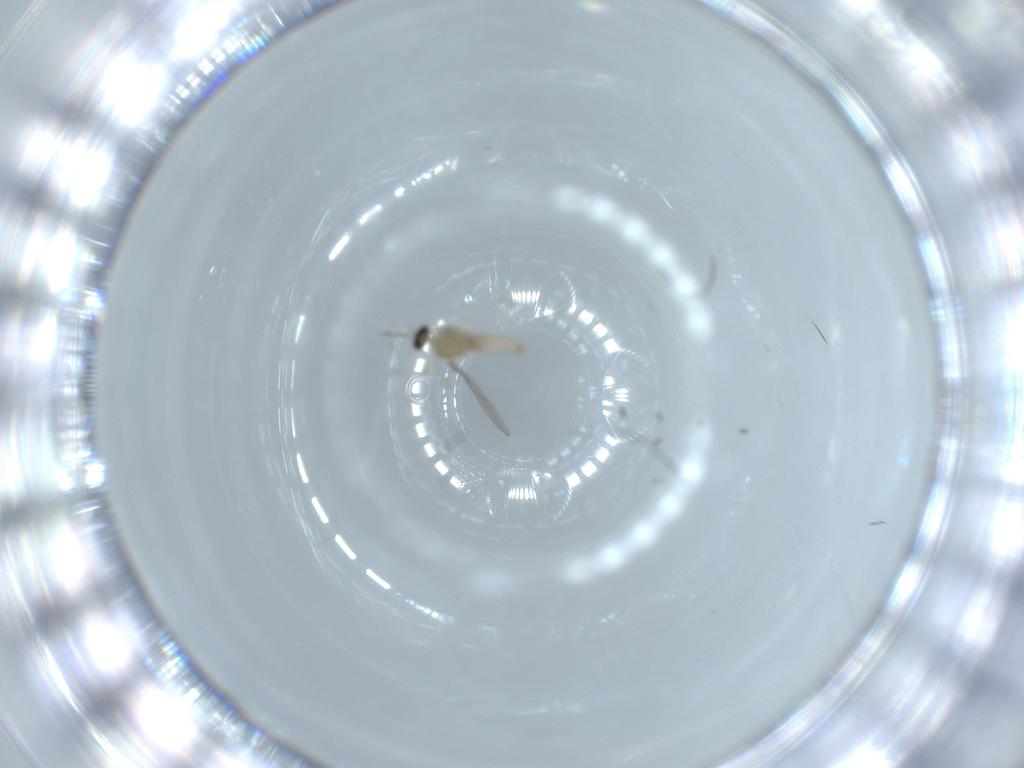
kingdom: Animalia
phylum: Arthropoda
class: Insecta
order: Diptera
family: Cecidomyiidae
